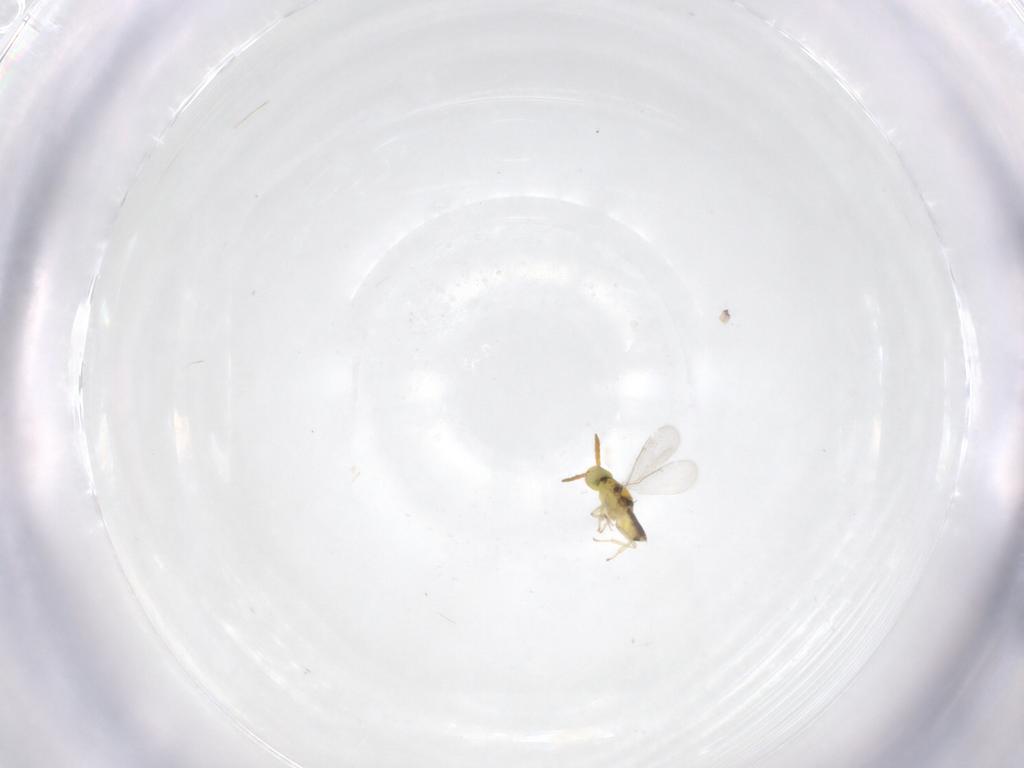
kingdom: Animalia
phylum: Arthropoda
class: Insecta
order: Hymenoptera
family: Aphelinidae
